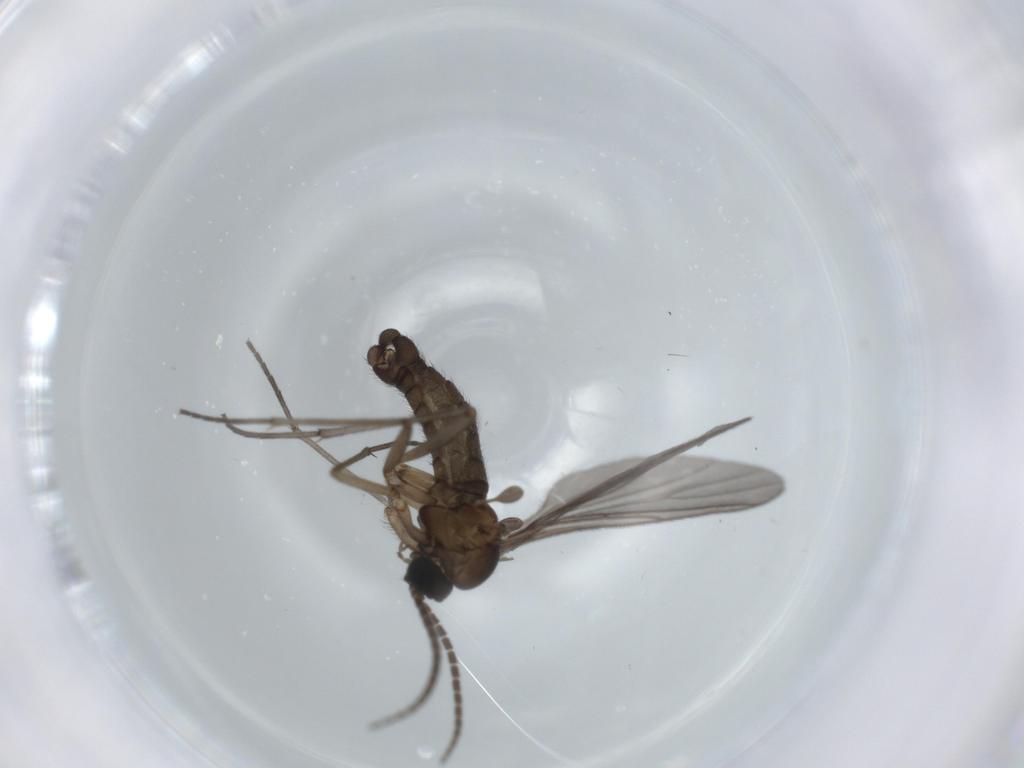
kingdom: Animalia
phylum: Arthropoda
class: Insecta
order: Diptera
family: Sciaridae
